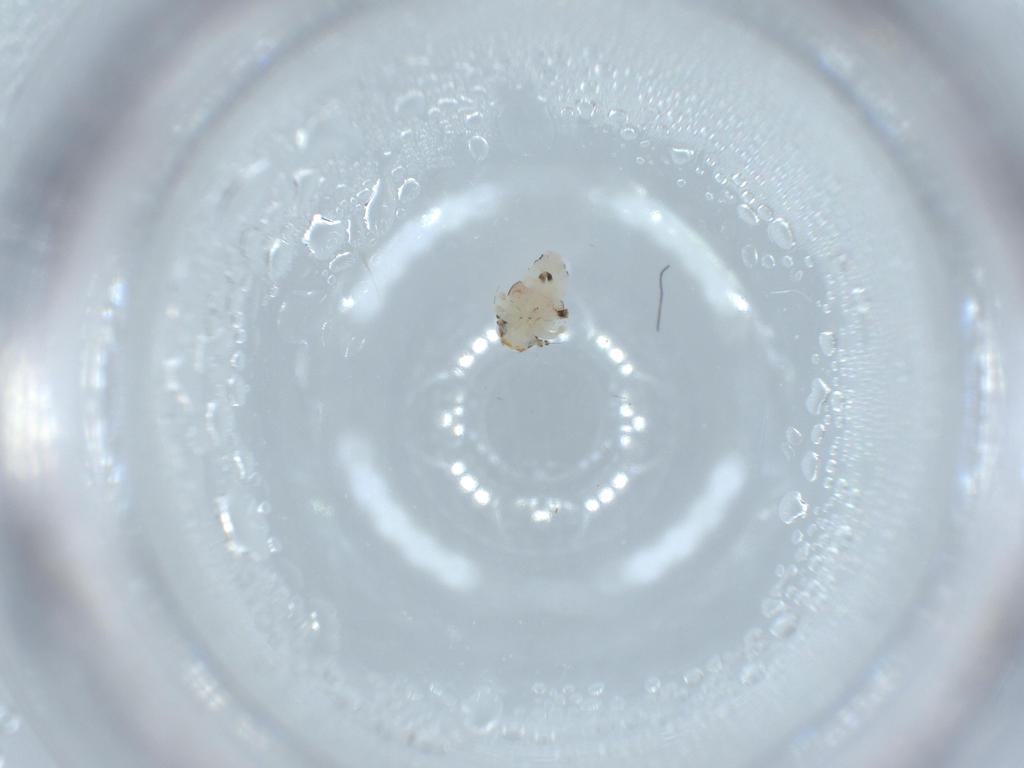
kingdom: Animalia
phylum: Arthropoda
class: Insecta
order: Hemiptera
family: Nogodinidae
